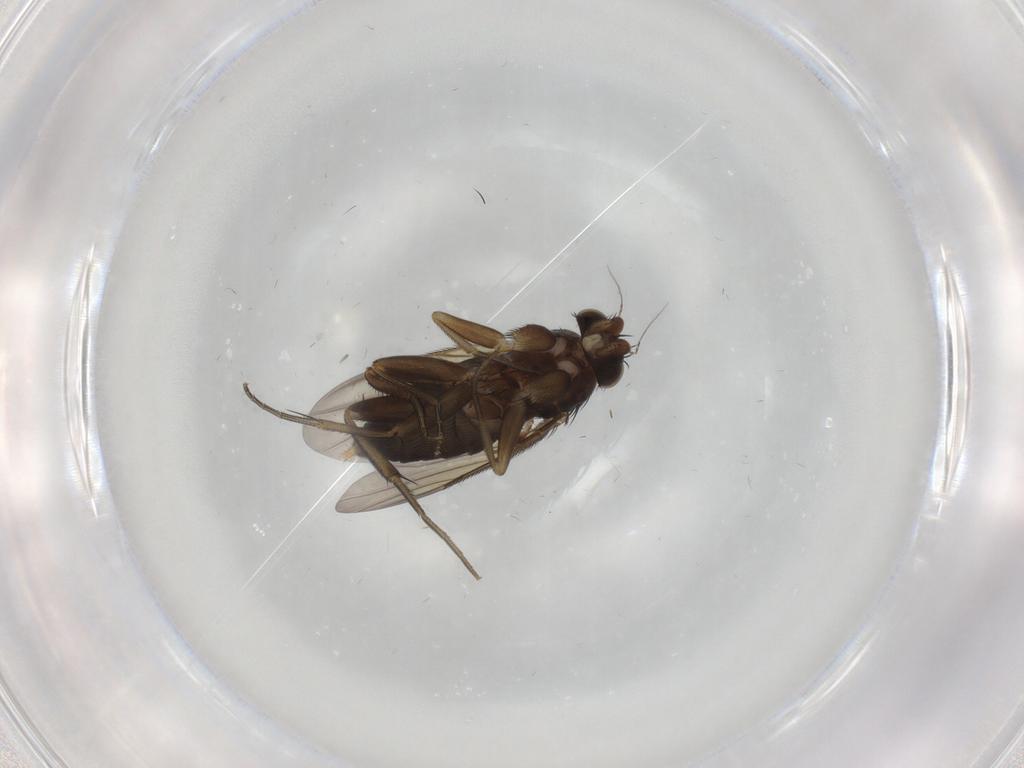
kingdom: Animalia
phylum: Arthropoda
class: Insecta
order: Diptera
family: Phoridae
